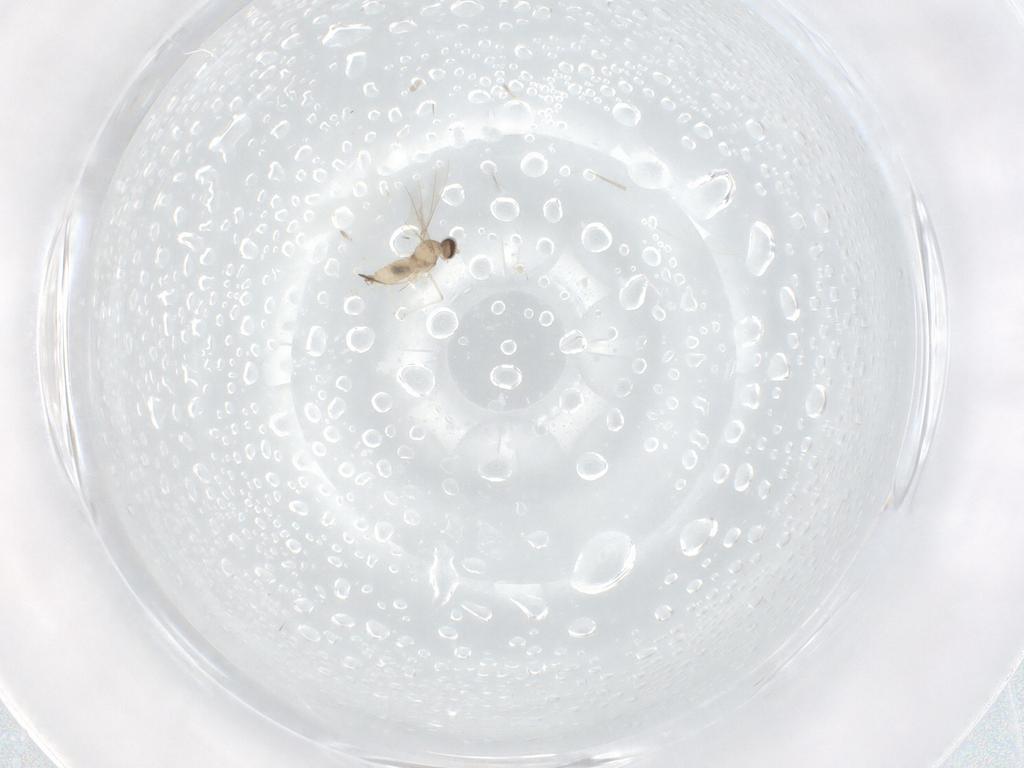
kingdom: Animalia
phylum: Arthropoda
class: Insecta
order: Diptera
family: Cecidomyiidae
